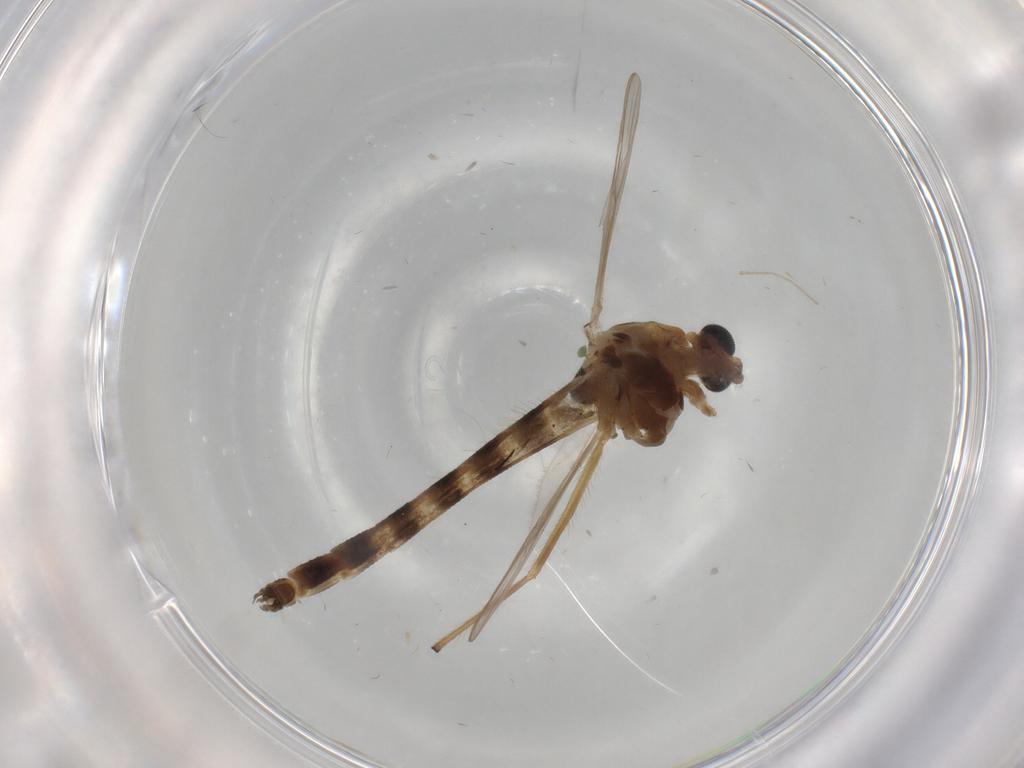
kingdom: Animalia
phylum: Arthropoda
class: Insecta
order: Diptera
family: Chironomidae
